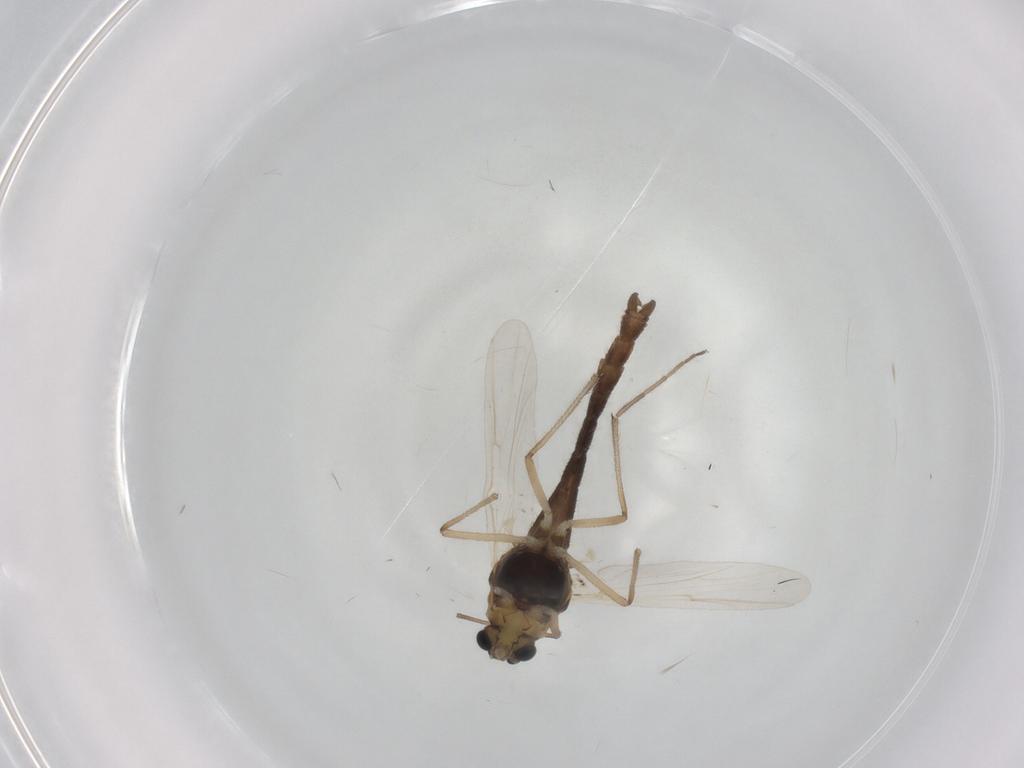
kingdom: Animalia
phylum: Arthropoda
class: Insecta
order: Diptera
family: Chironomidae
